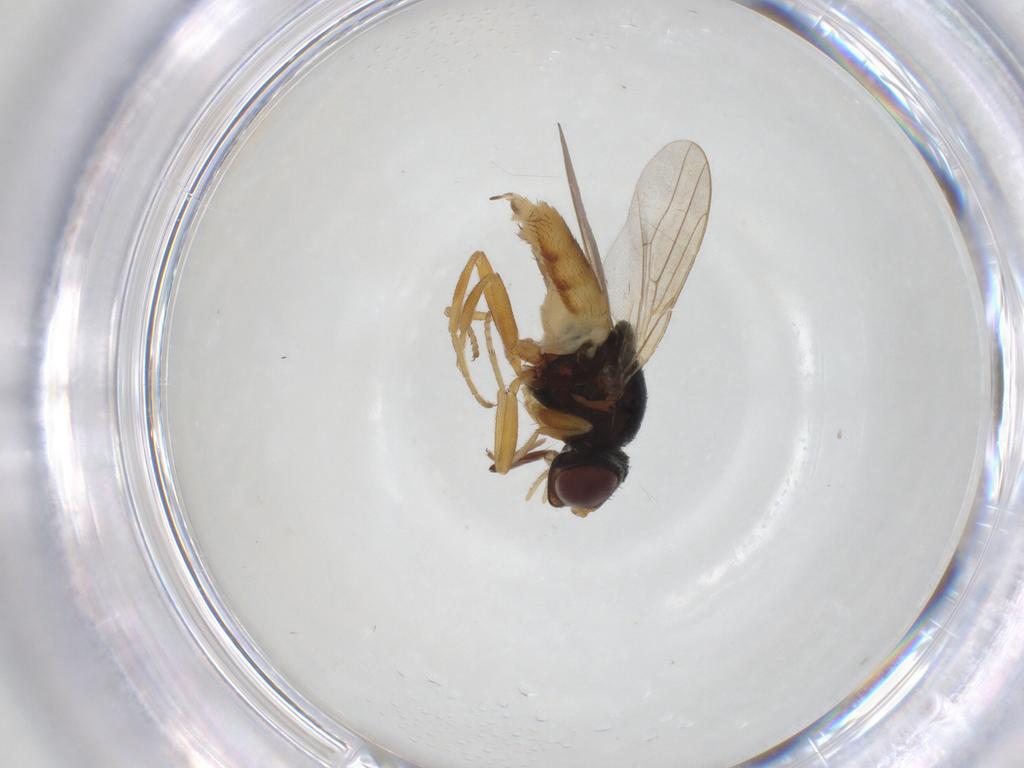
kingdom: Animalia
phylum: Arthropoda
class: Insecta
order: Diptera
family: Chloropidae
